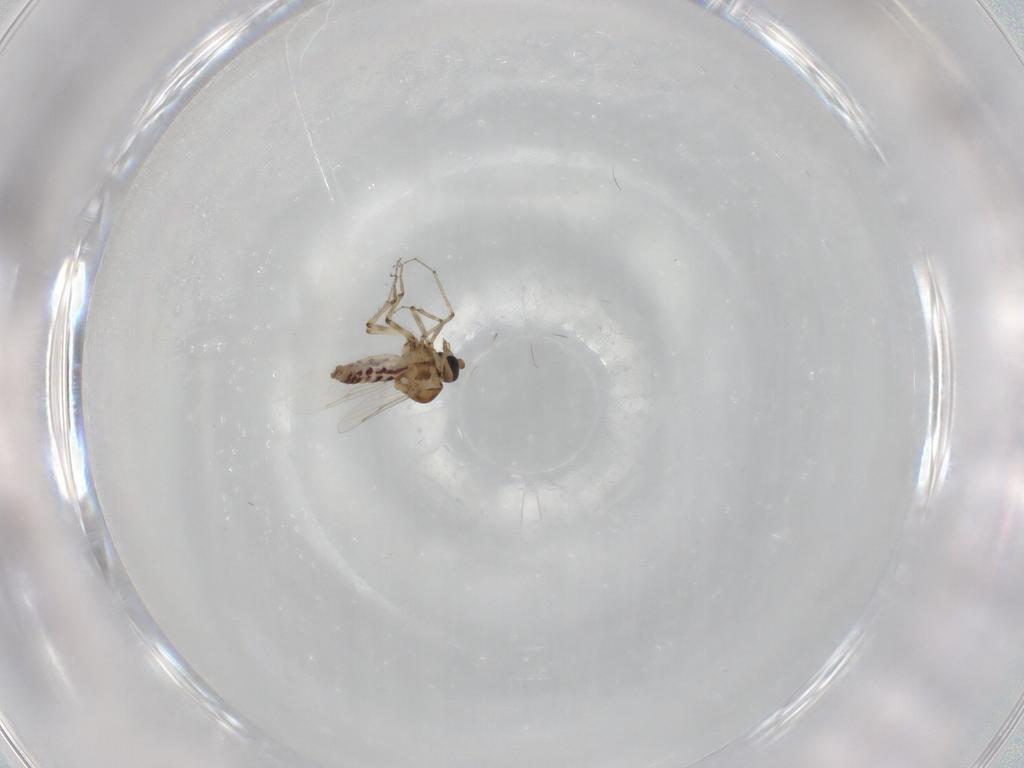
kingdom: Animalia
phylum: Arthropoda
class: Insecta
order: Diptera
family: Ceratopogonidae
